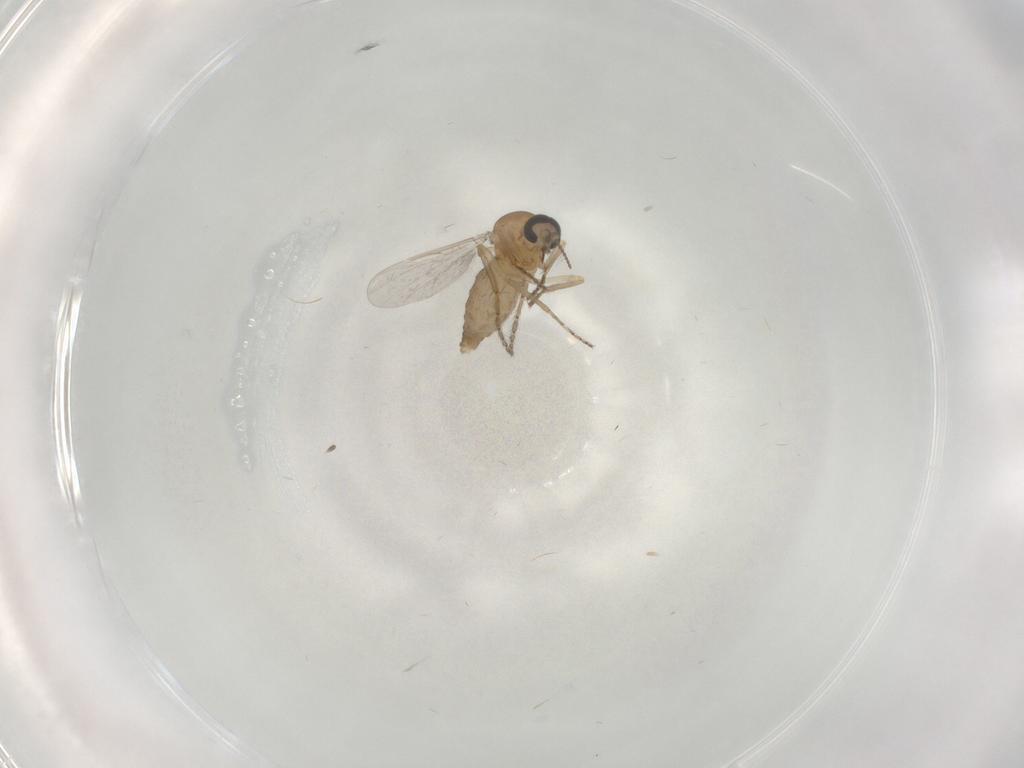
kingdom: Animalia
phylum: Arthropoda
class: Insecta
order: Diptera
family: Ceratopogonidae
